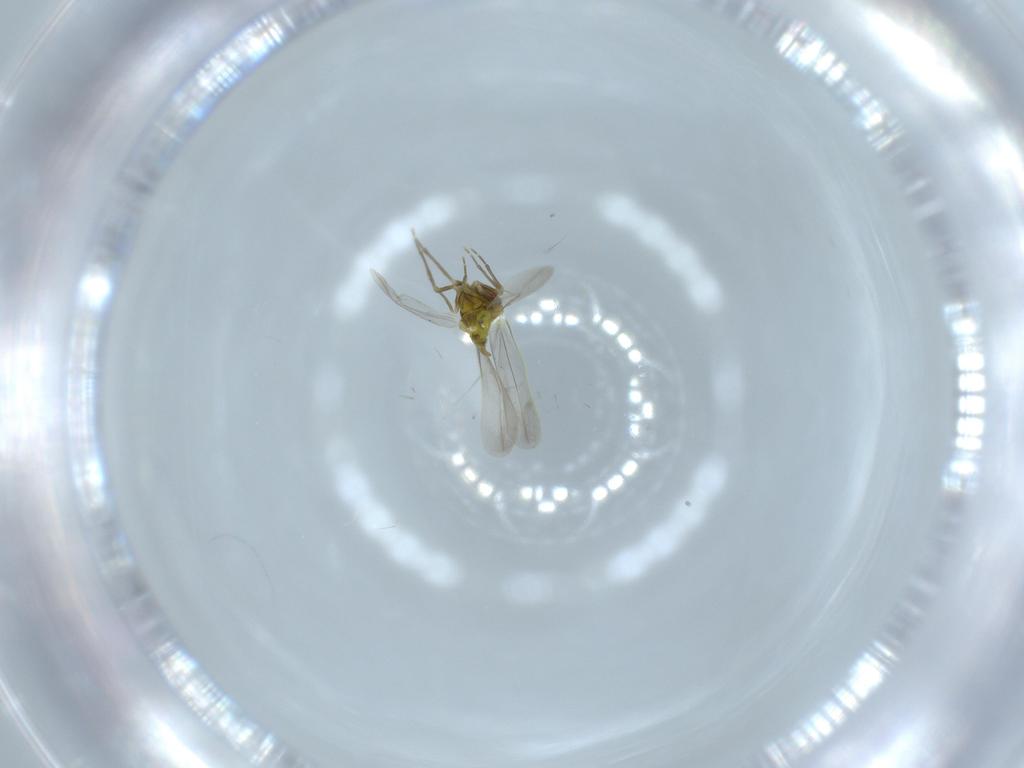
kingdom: Animalia
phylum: Arthropoda
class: Insecta
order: Hemiptera
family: Aleyrodidae
